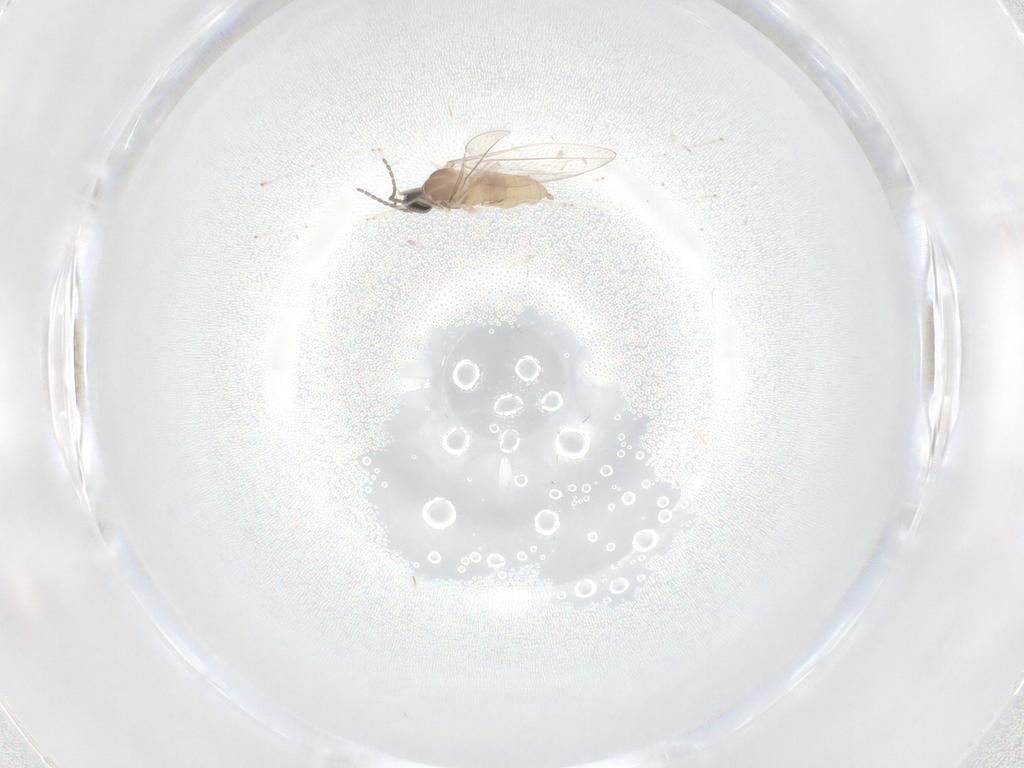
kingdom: Animalia
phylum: Arthropoda
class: Insecta
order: Diptera
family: Cecidomyiidae
